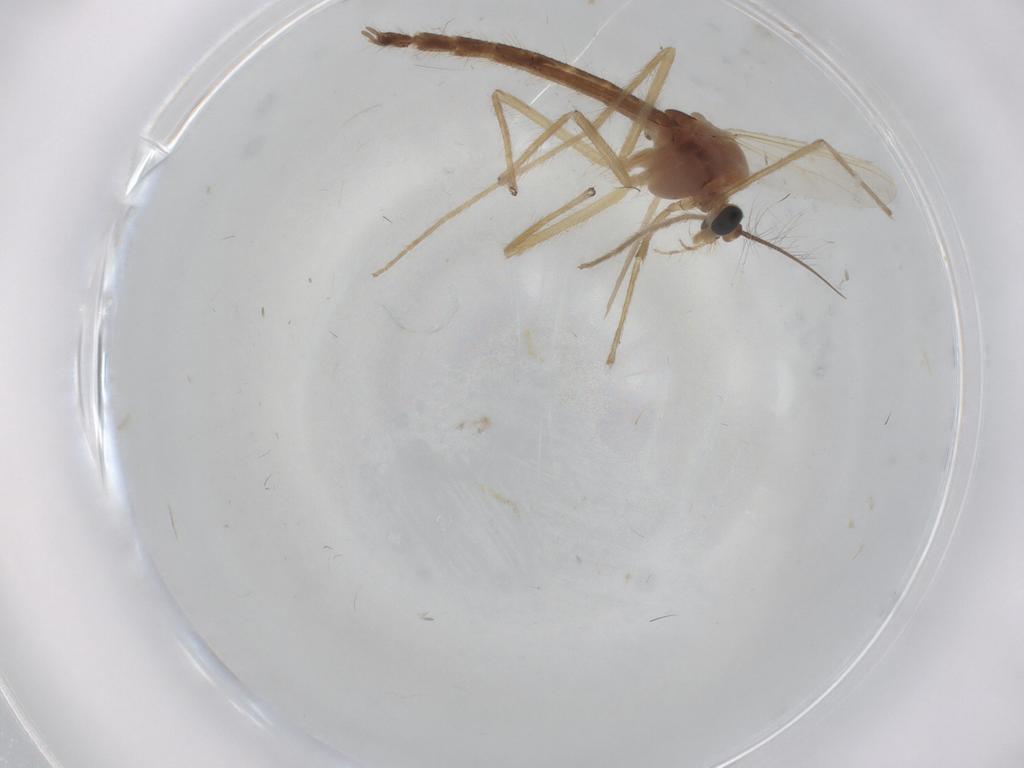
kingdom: Animalia
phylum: Arthropoda
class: Insecta
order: Diptera
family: Chironomidae
